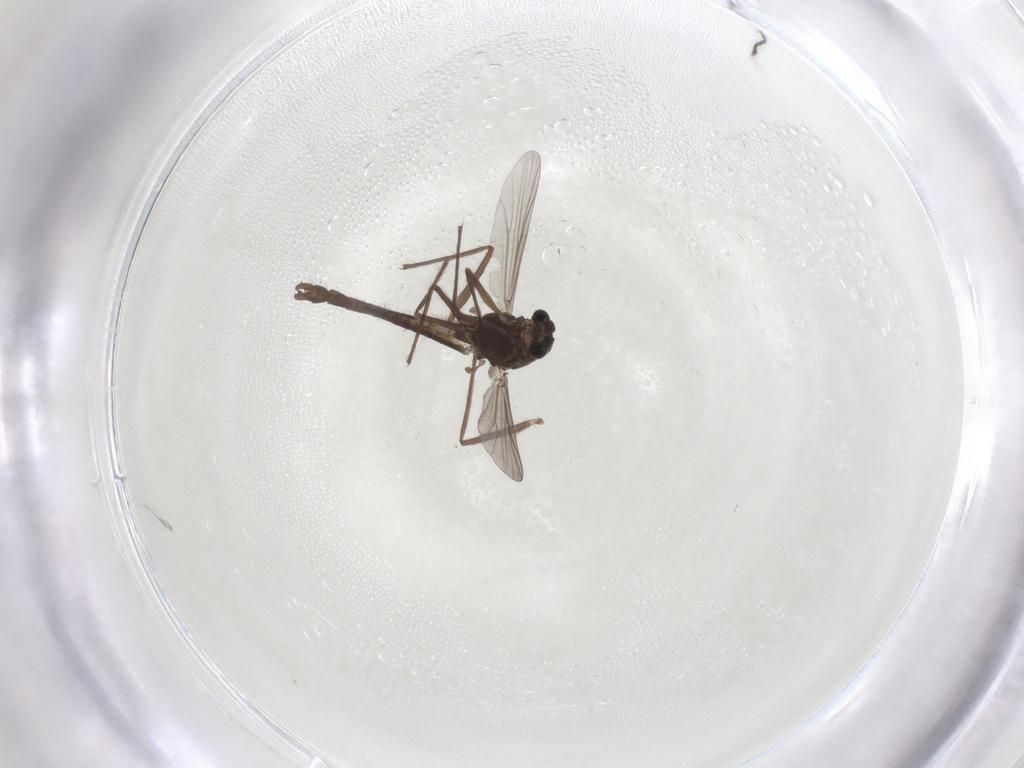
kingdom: Animalia
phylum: Arthropoda
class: Insecta
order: Diptera
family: Chironomidae
